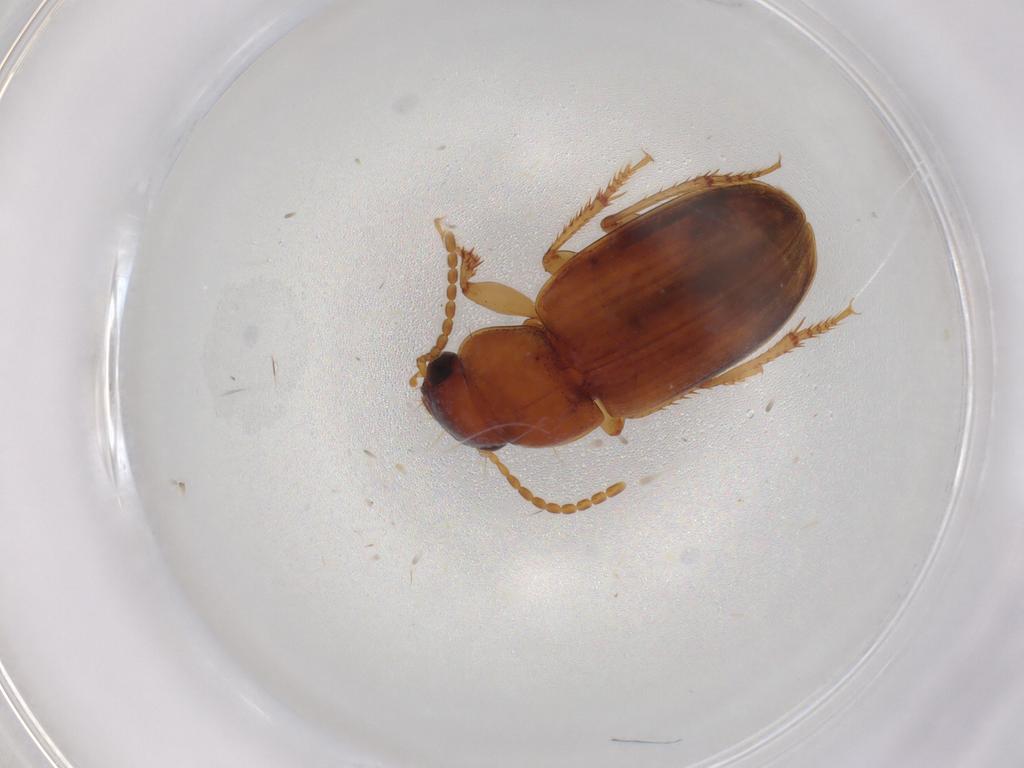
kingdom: Animalia
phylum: Arthropoda
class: Insecta
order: Coleoptera
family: Carabidae
